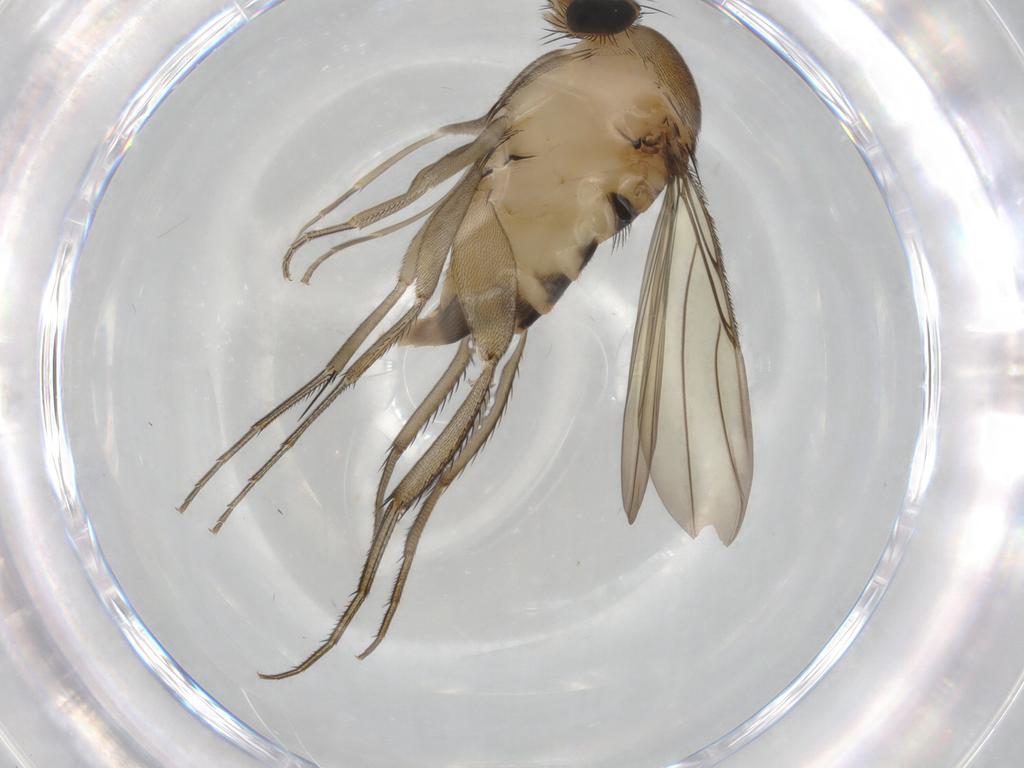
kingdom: Animalia
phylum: Arthropoda
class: Insecta
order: Diptera
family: Phoridae
